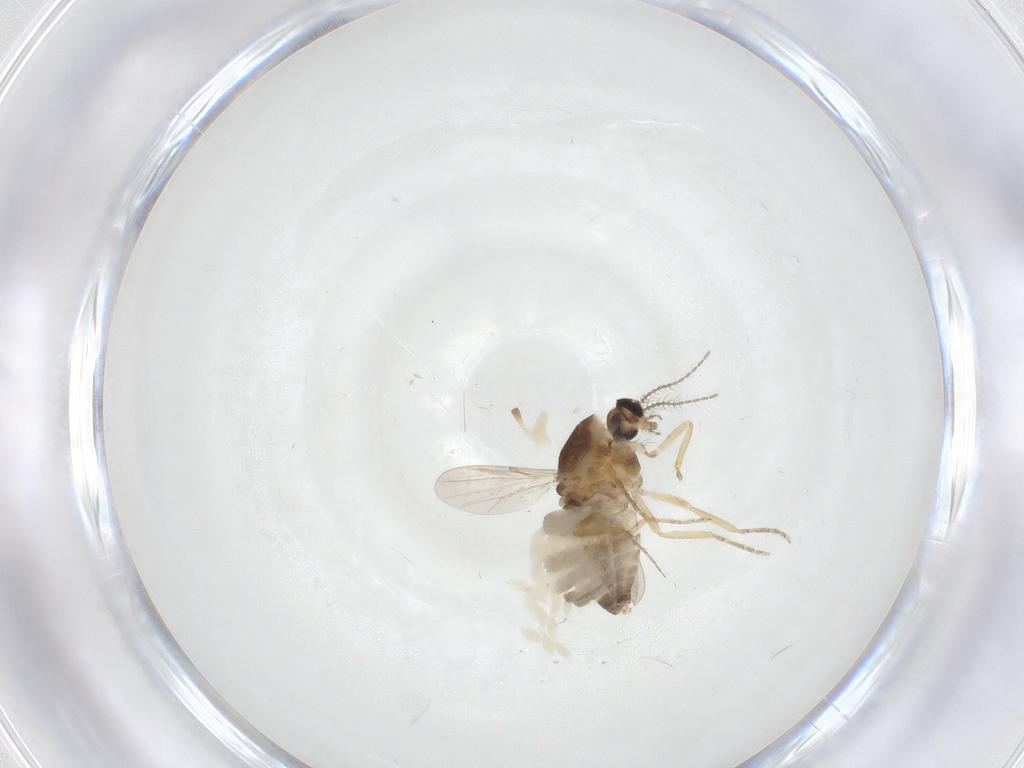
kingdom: Animalia
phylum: Arthropoda
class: Insecta
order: Diptera
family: Ceratopogonidae
